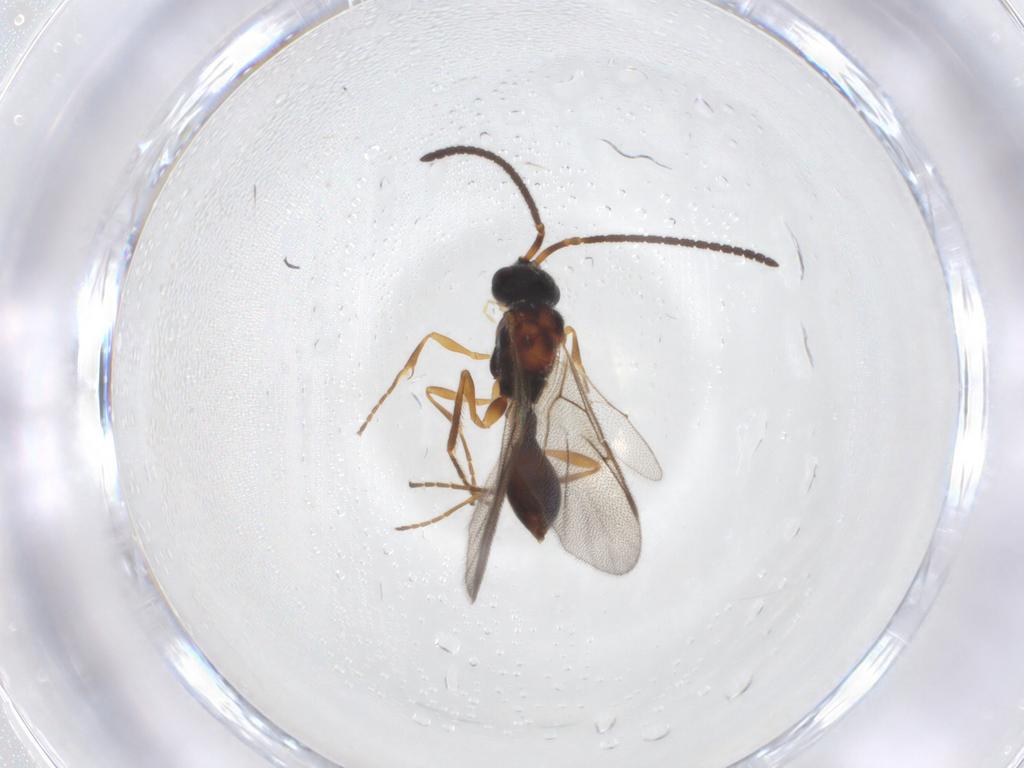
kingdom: Animalia
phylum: Arthropoda
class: Insecta
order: Hymenoptera
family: Diapriidae
